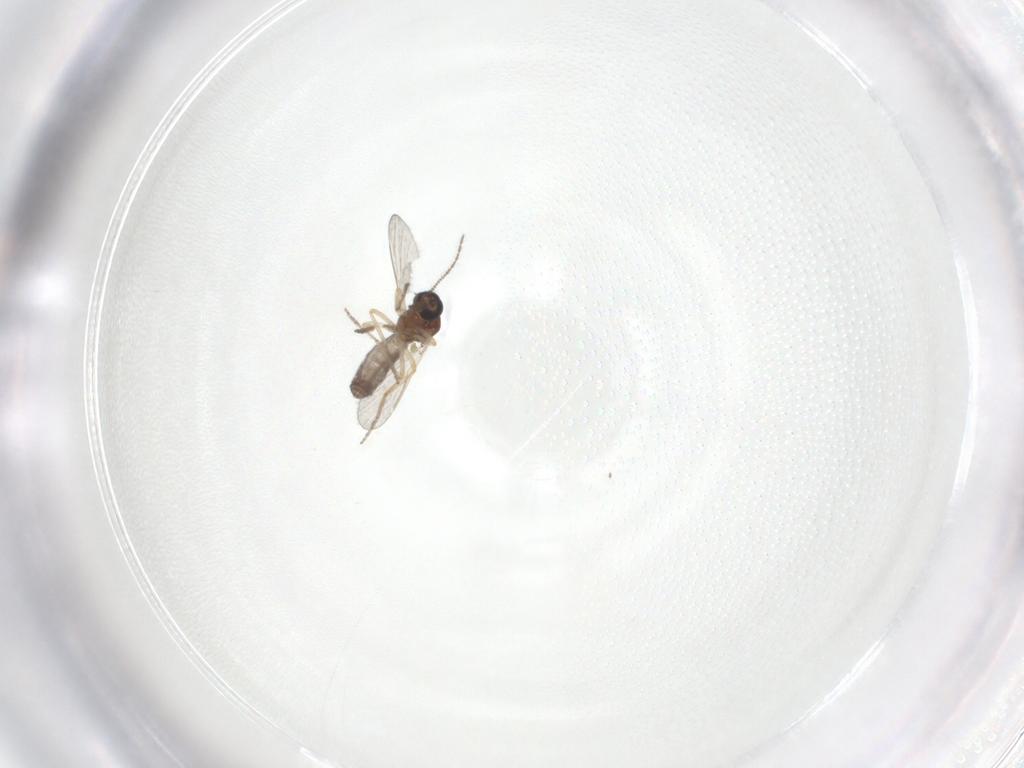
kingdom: Animalia
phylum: Arthropoda
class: Insecta
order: Diptera
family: Ceratopogonidae
